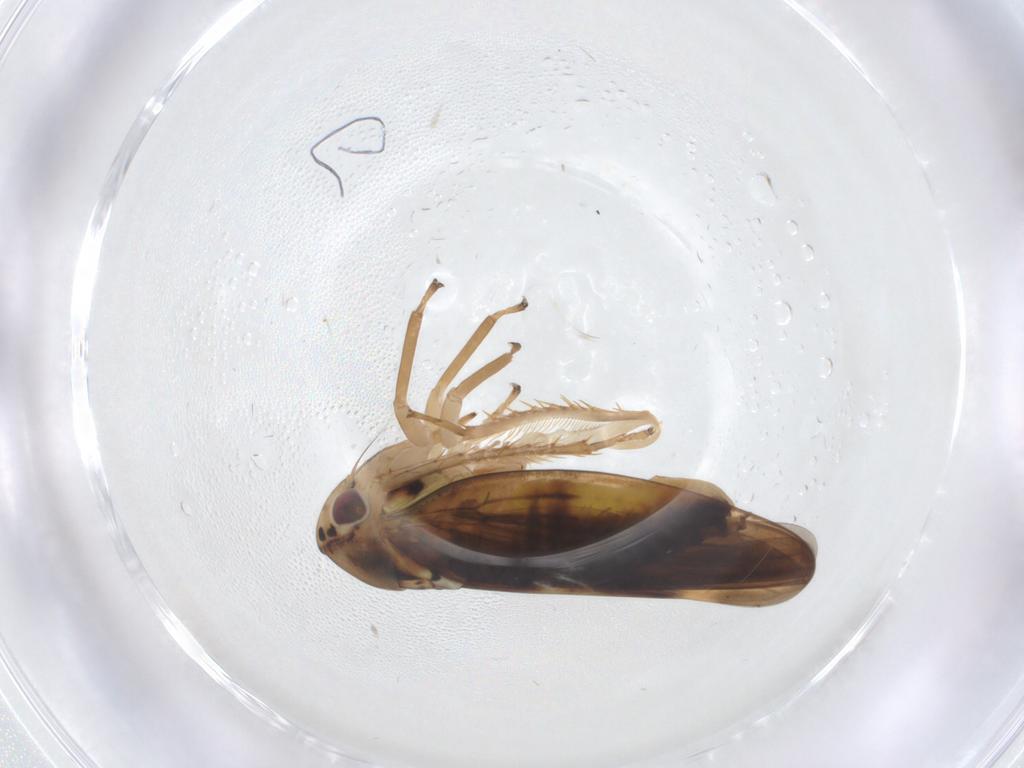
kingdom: Animalia
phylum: Arthropoda
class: Insecta
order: Hemiptera
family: Cicadellidae
